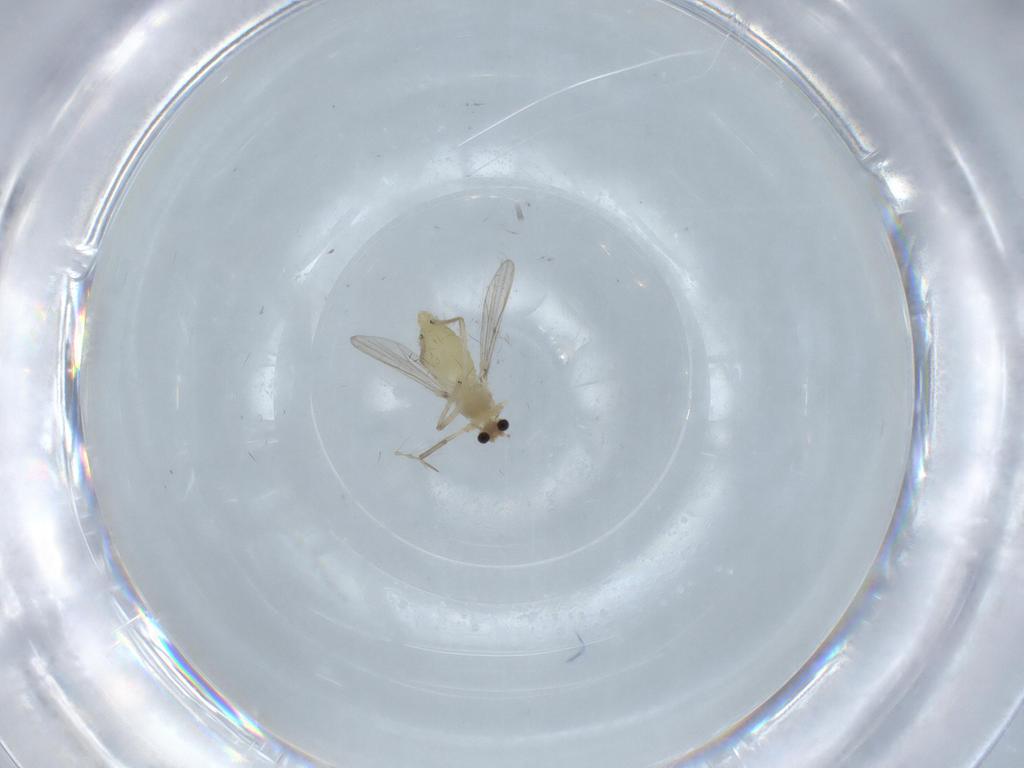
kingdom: Animalia
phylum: Arthropoda
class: Insecta
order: Diptera
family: Chironomidae
